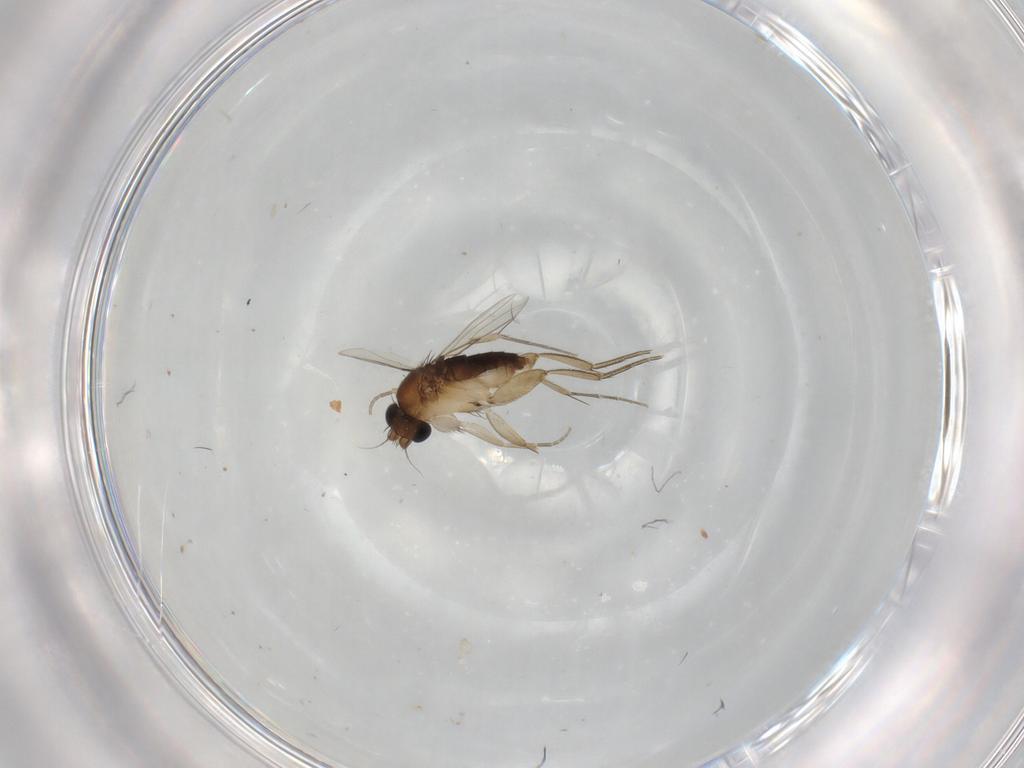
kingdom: Animalia
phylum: Arthropoda
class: Insecta
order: Diptera
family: Phoridae
